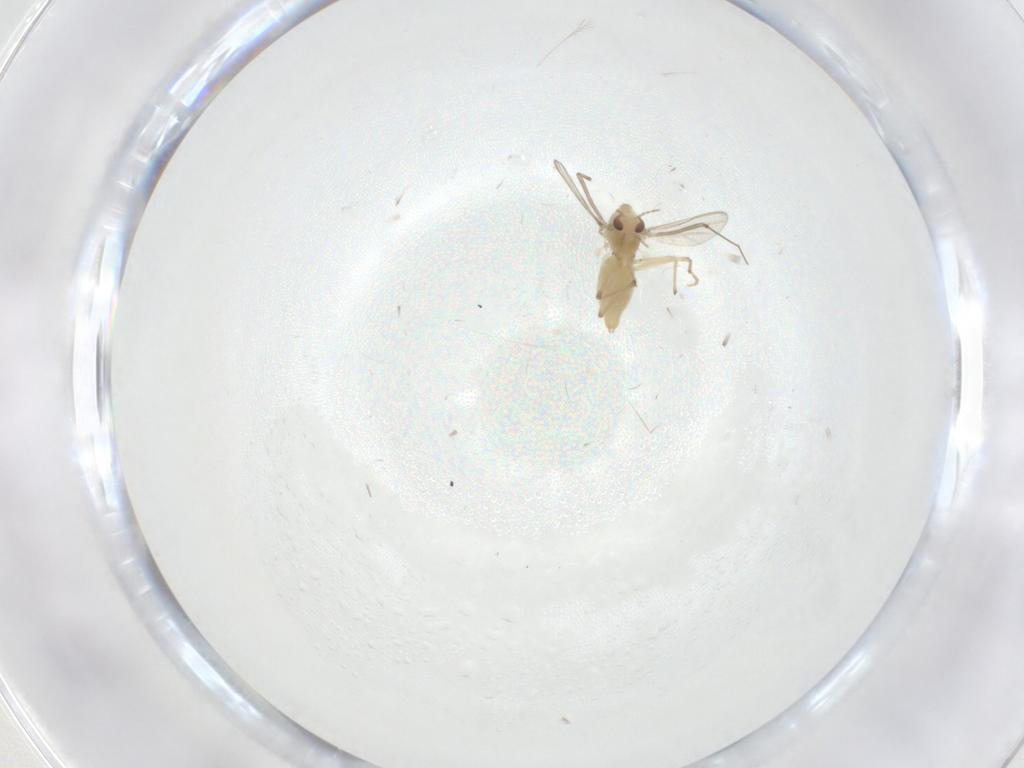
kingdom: Animalia
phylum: Arthropoda
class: Insecta
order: Diptera
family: Chironomidae
